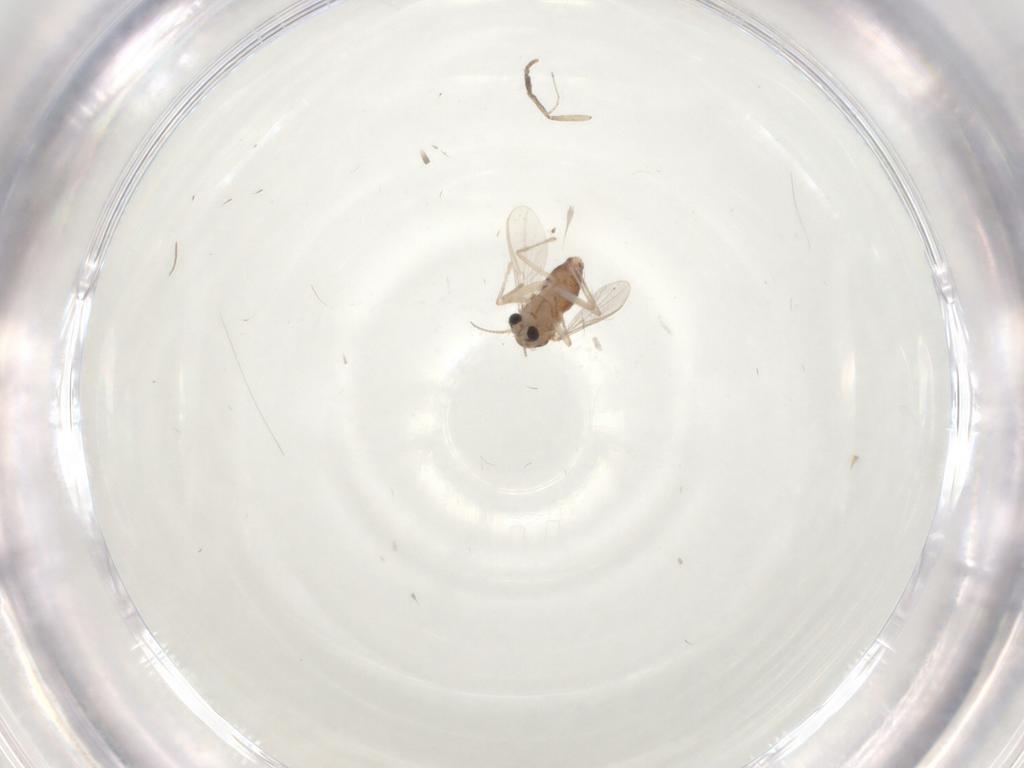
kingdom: Animalia
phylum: Arthropoda
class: Insecta
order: Diptera
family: Chironomidae
